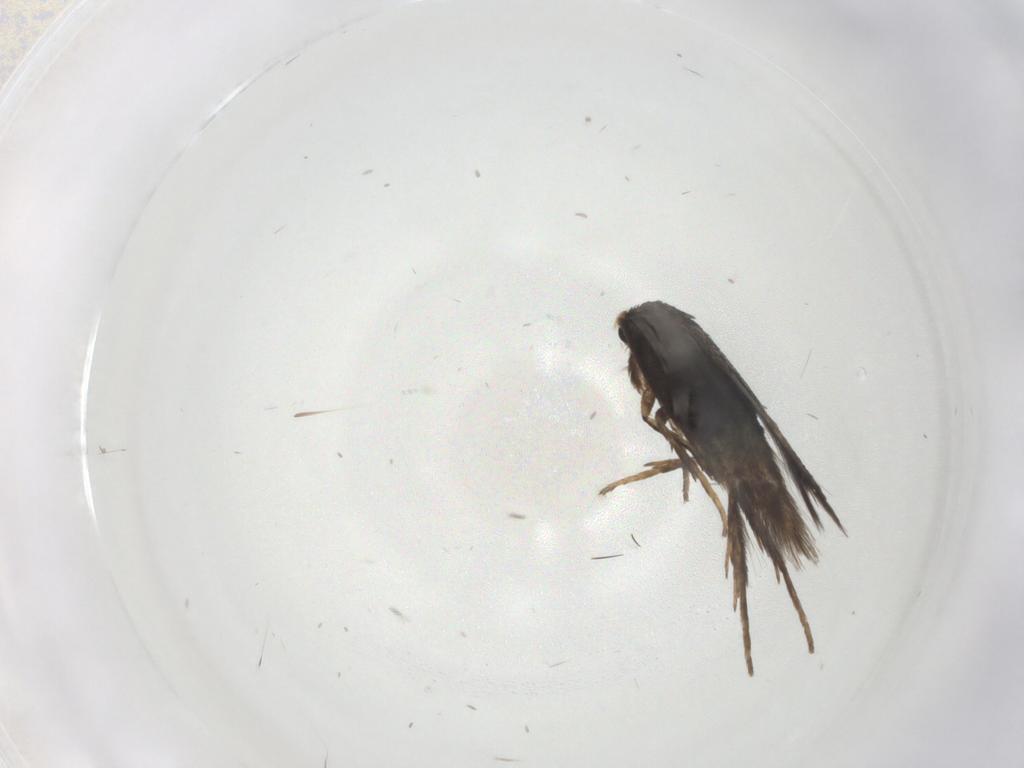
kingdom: Animalia
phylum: Arthropoda
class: Insecta
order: Lepidoptera
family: Nepticulidae
